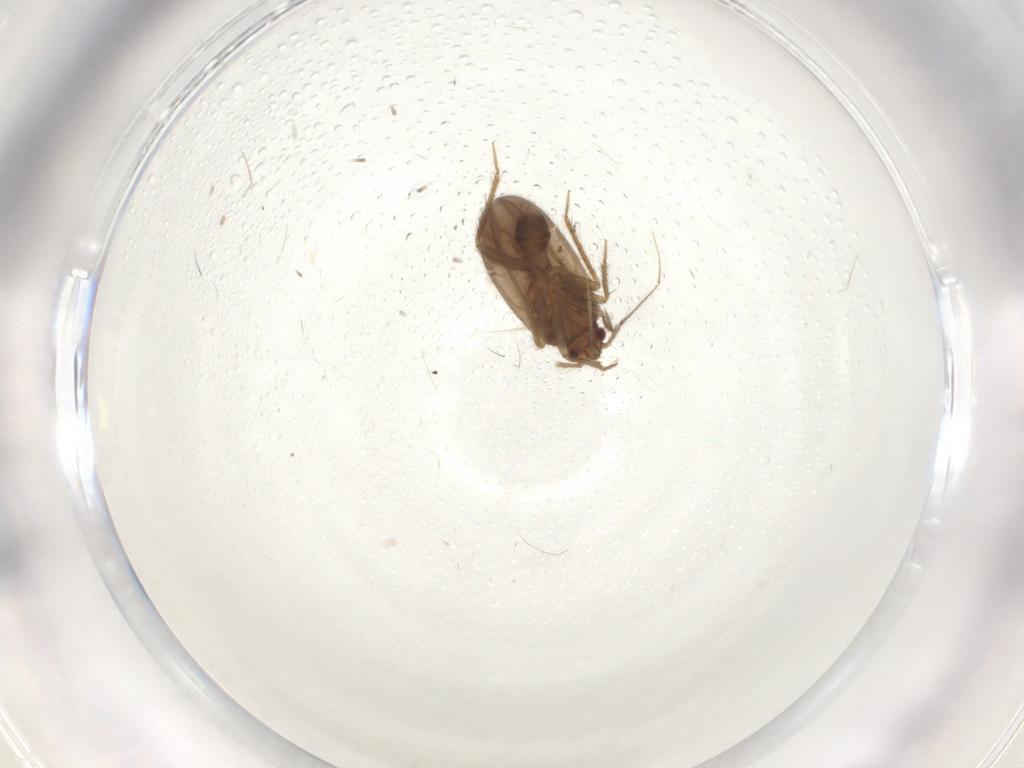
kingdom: Animalia
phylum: Arthropoda
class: Insecta
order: Hemiptera
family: Ceratocombidae
